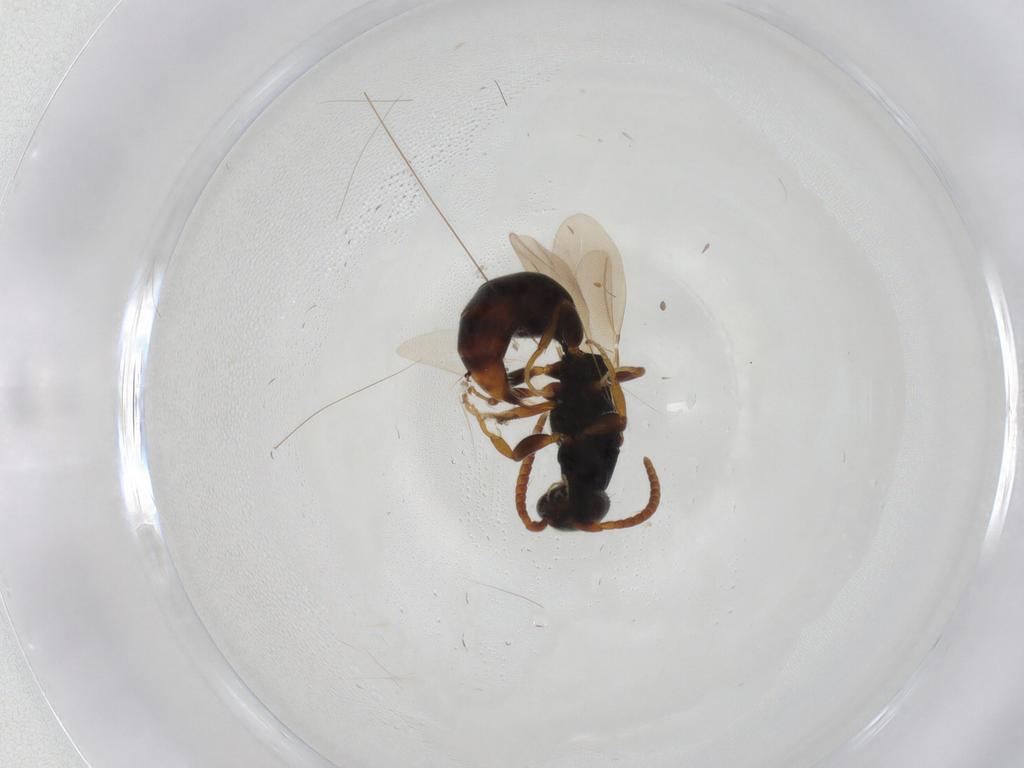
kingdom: Animalia
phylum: Arthropoda
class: Insecta
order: Hymenoptera
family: Bethylidae
